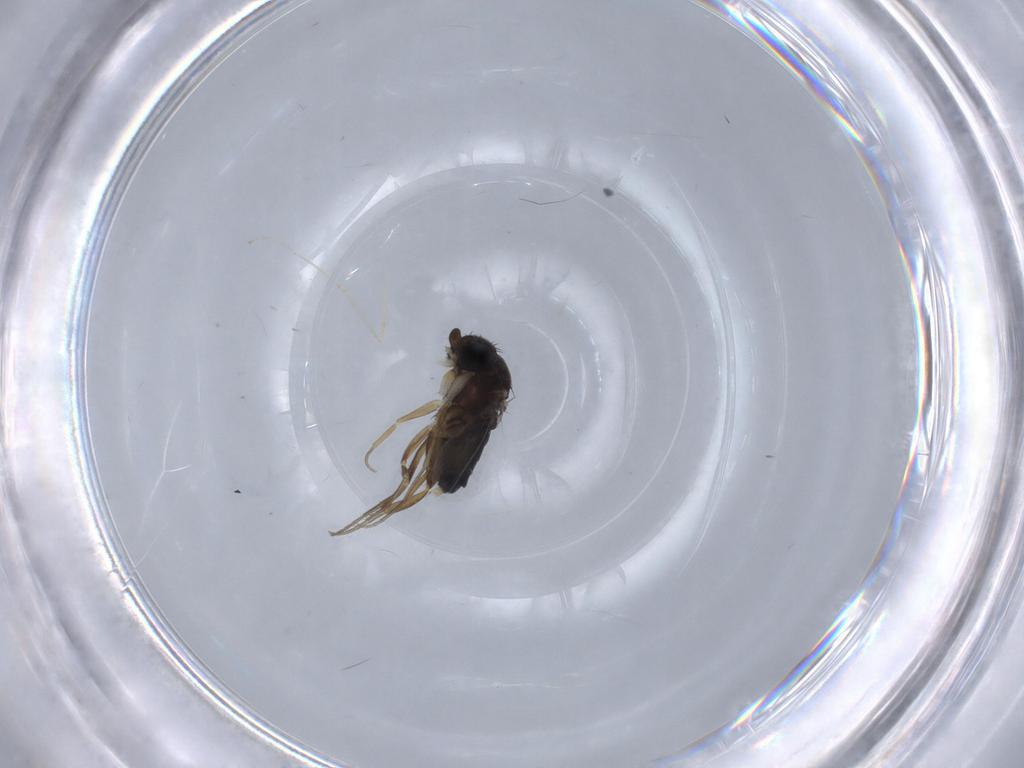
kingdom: Animalia
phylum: Arthropoda
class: Insecta
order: Diptera
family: Phoridae
